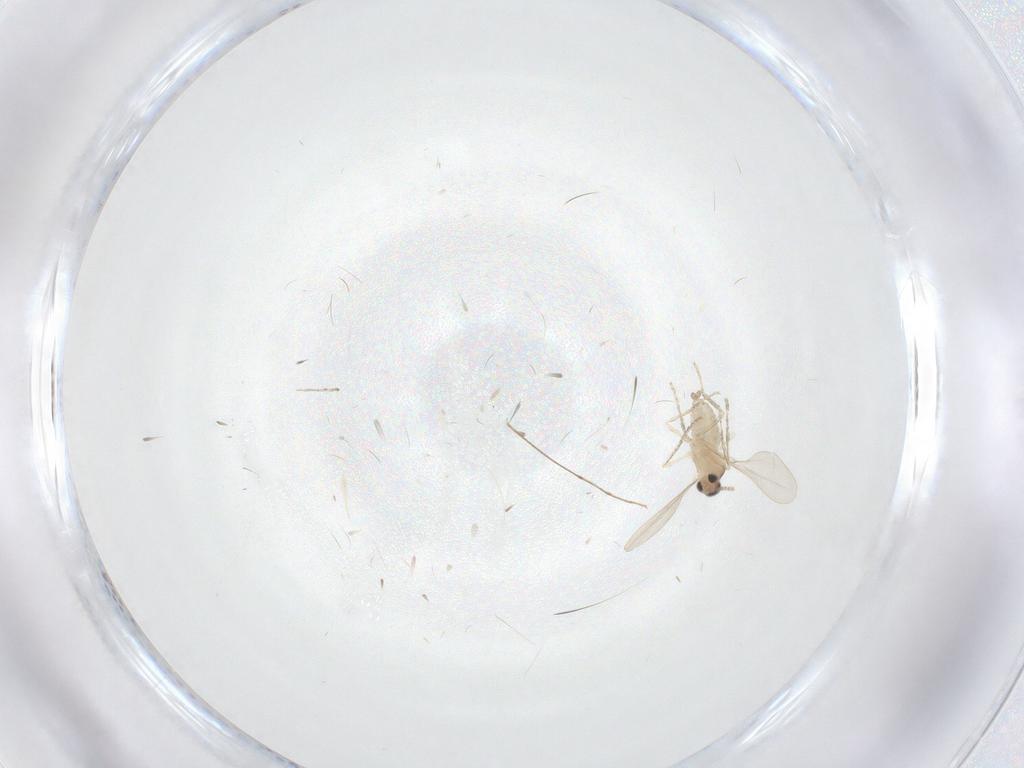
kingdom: Animalia
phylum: Arthropoda
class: Insecta
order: Diptera
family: Cecidomyiidae
